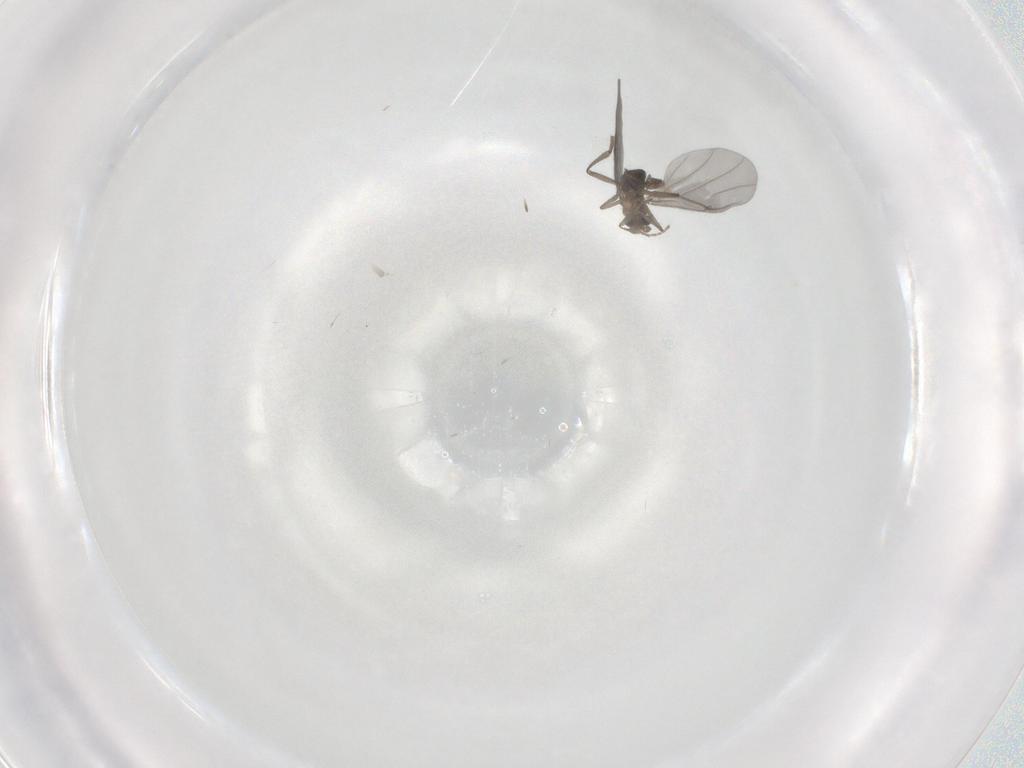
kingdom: Animalia
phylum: Arthropoda
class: Insecta
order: Diptera
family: Phoridae
